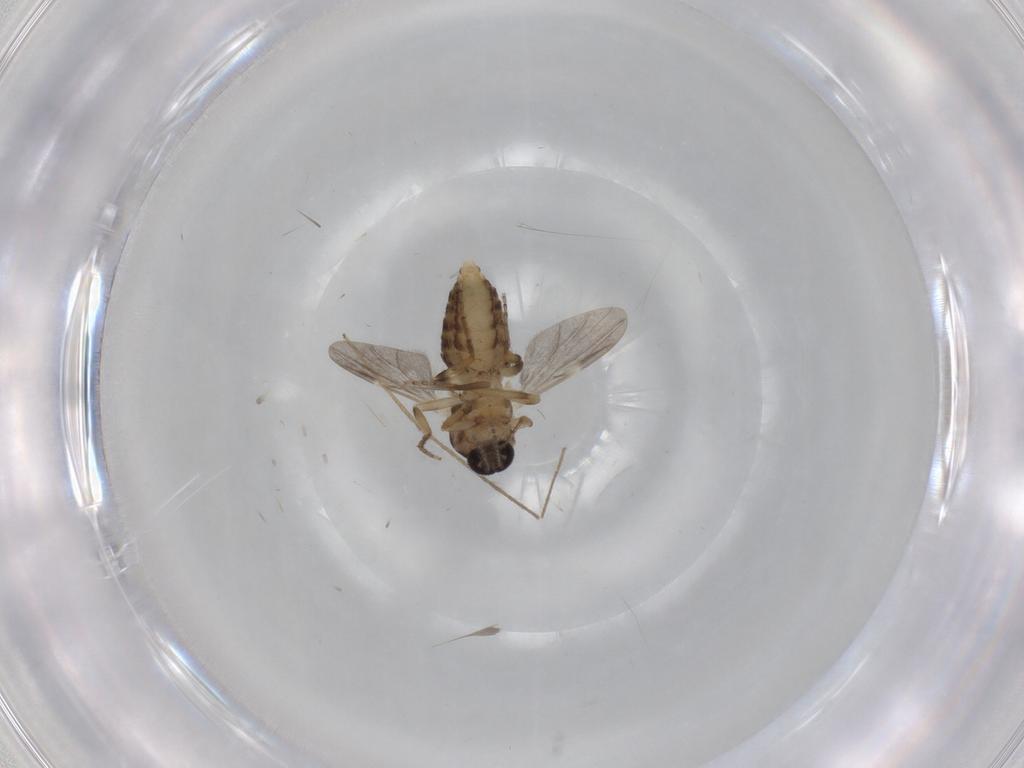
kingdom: Animalia
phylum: Arthropoda
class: Insecta
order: Diptera
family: Ceratopogonidae
